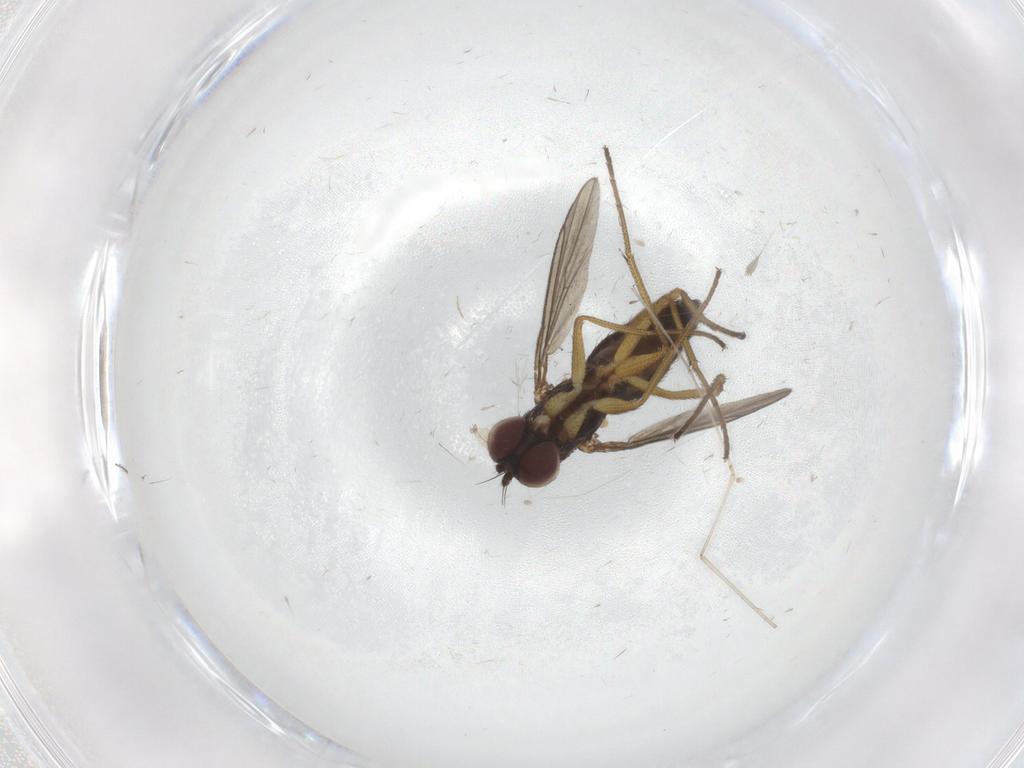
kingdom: Animalia
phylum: Arthropoda
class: Insecta
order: Diptera
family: Dolichopodidae
